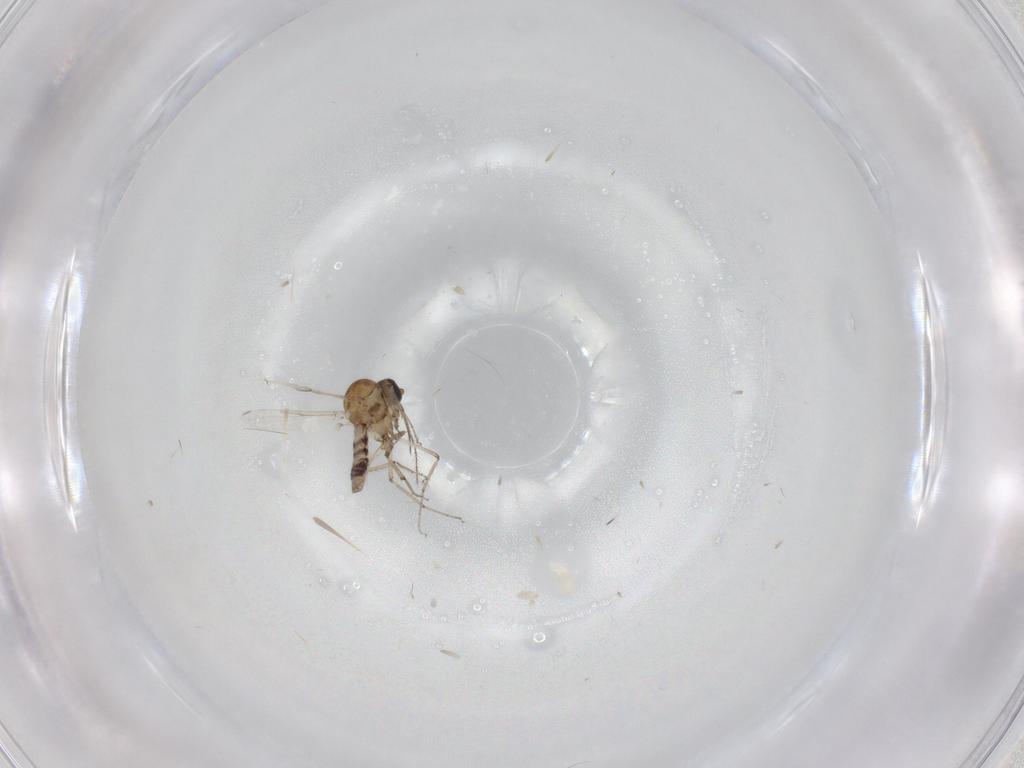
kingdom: Animalia
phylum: Arthropoda
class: Insecta
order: Diptera
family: Ceratopogonidae
